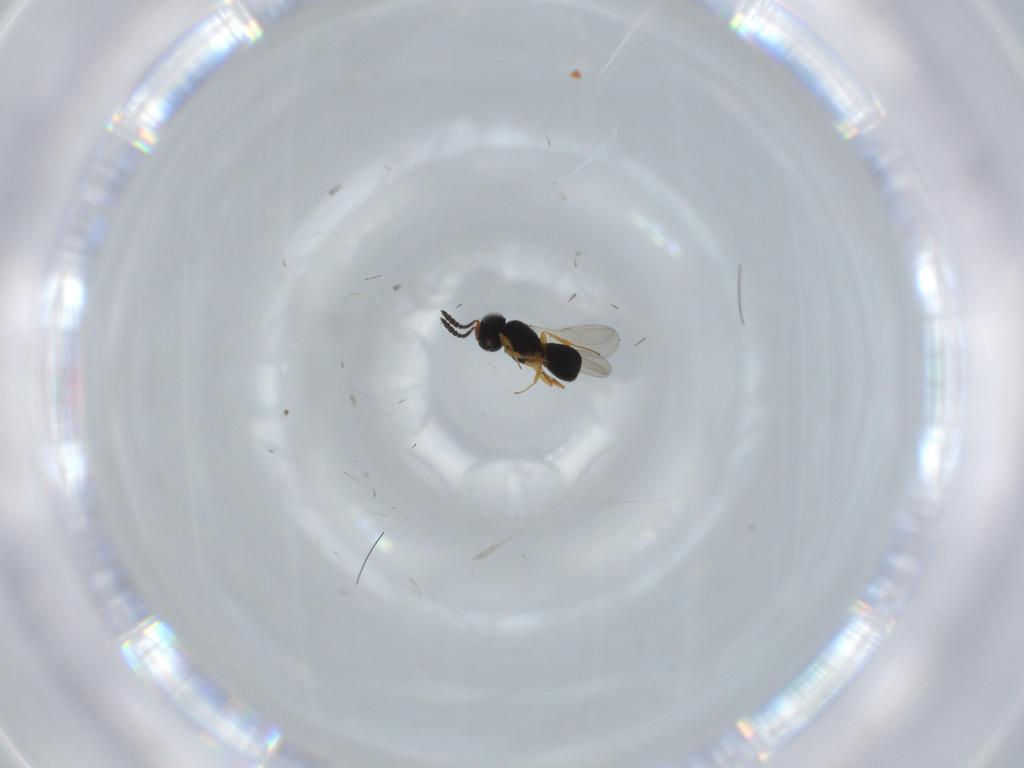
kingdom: Animalia
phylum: Arthropoda
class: Insecta
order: Hymenoptera
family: Scelionidae
